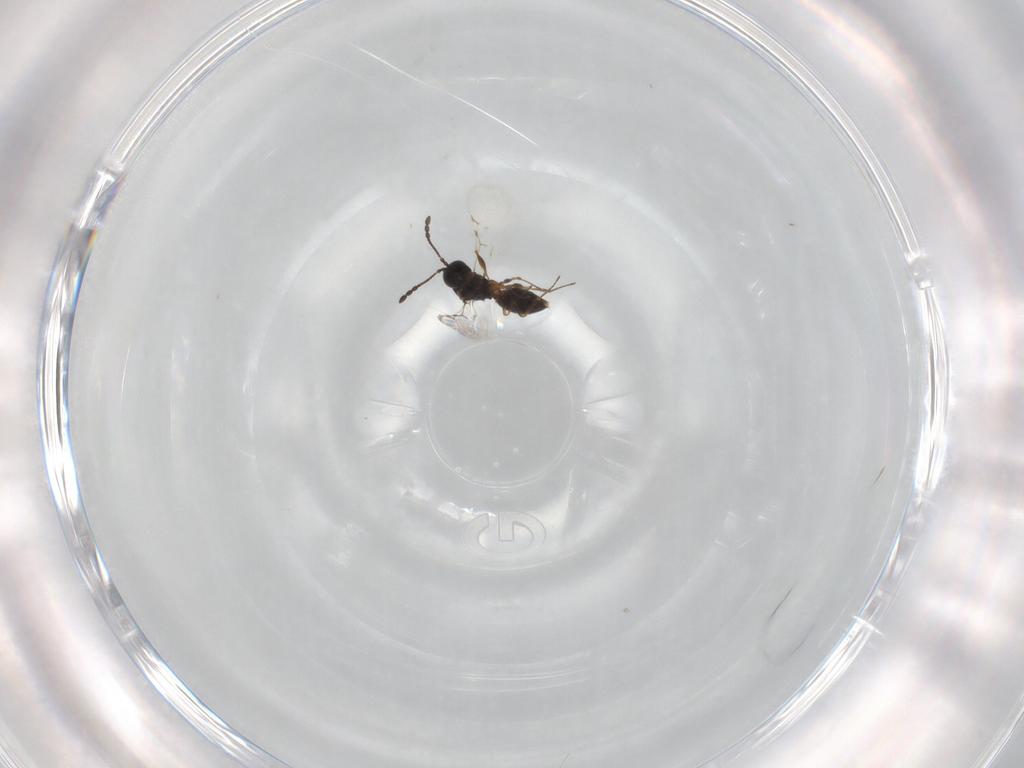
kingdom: Animalia
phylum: Arthropoda
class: Insecta
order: Hymenoptera
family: Figitidae
